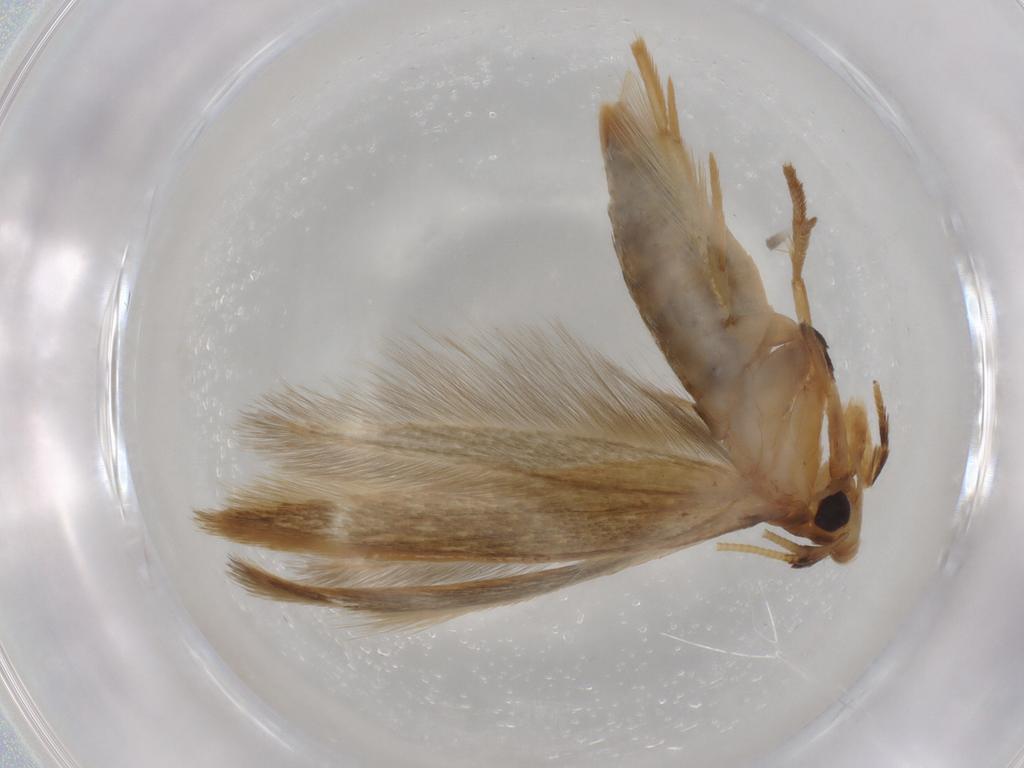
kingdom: Animalia
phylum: Arthropoda
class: Insecta
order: Lepidoptera
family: Tineidae
